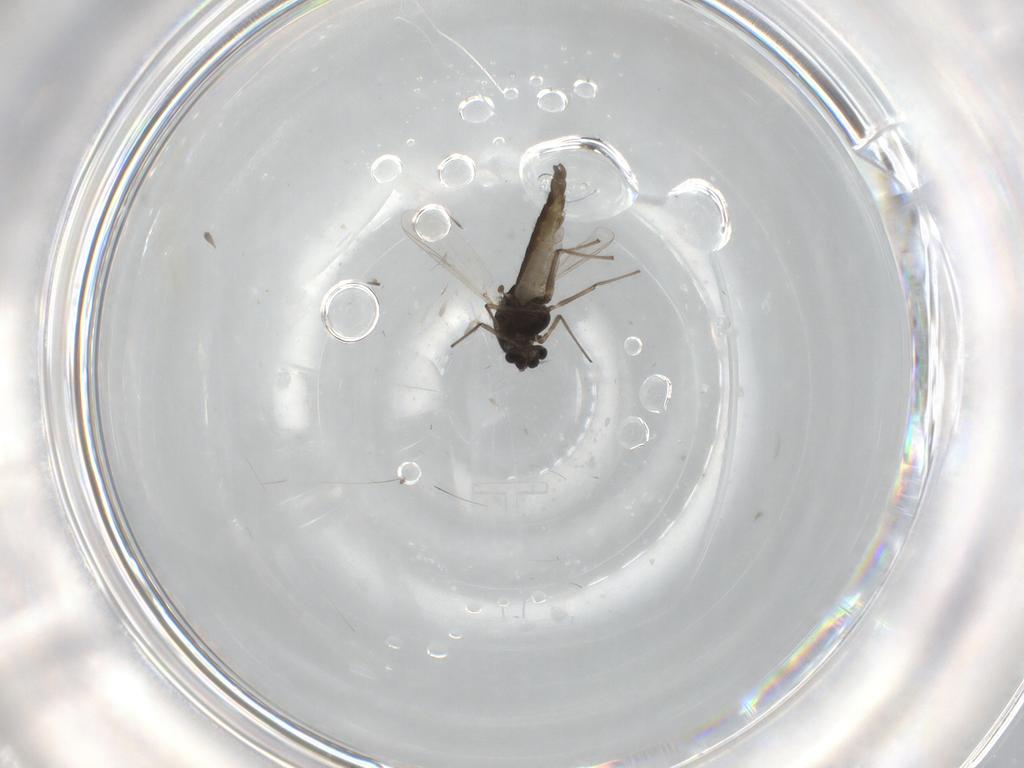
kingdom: Animalia
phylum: Arthropoda
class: Insecta
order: Diptera
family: Chironomidae
